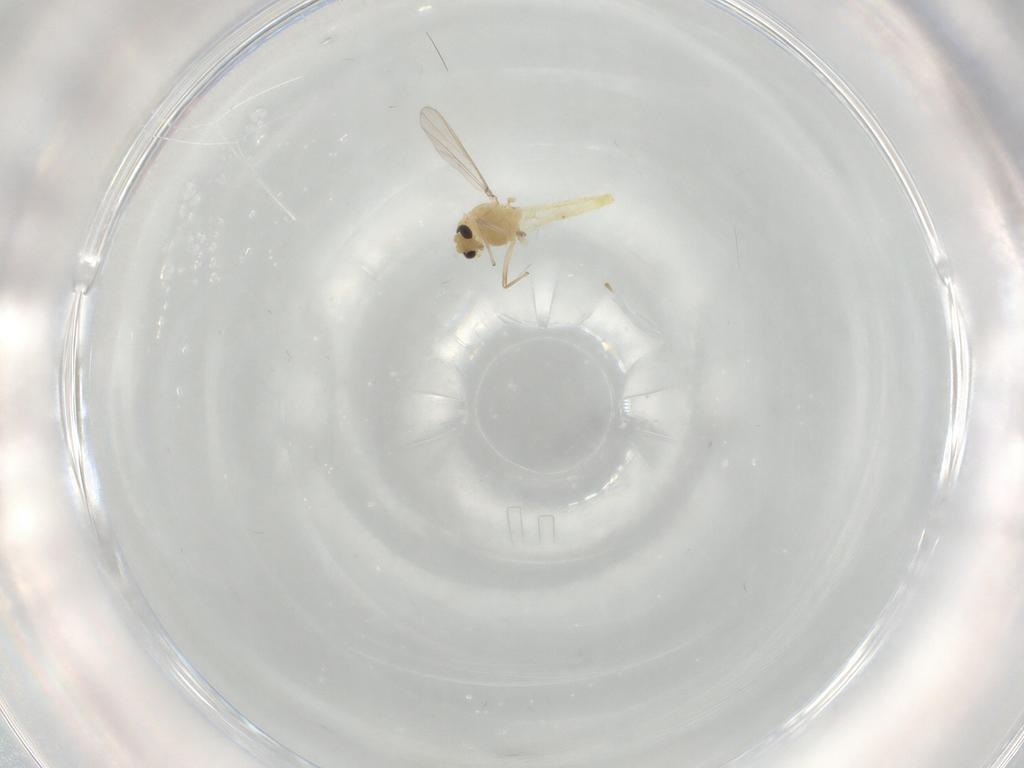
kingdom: Animalia
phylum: Arthropoda
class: Insecta
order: Diptera
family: Chironomidae
